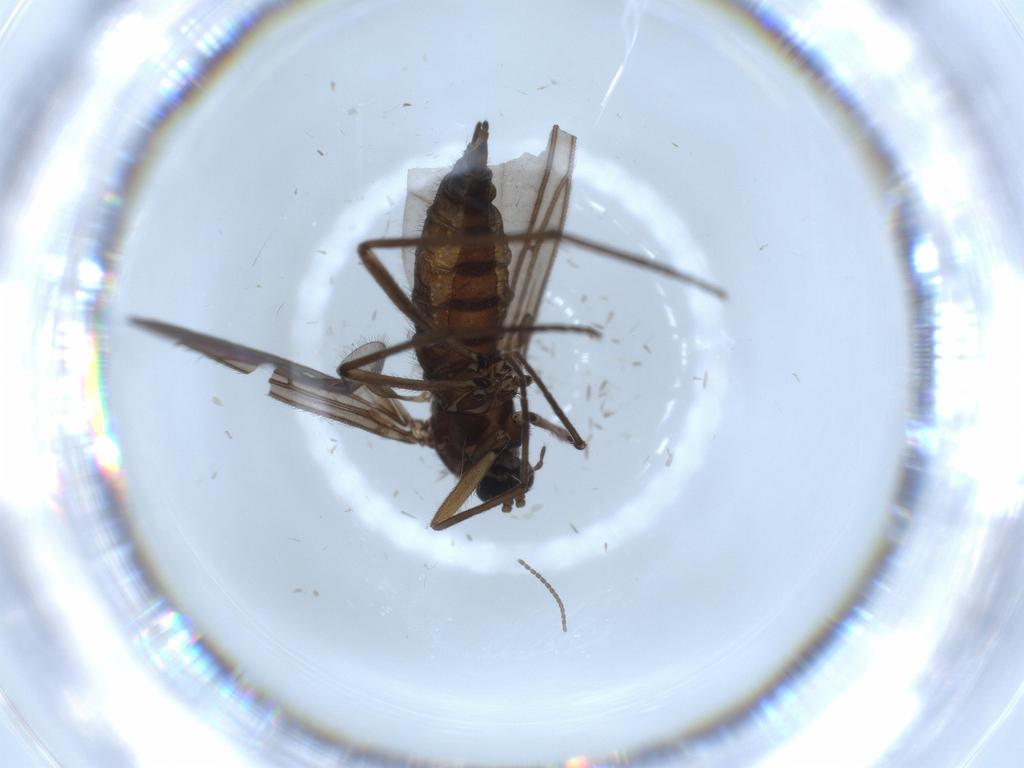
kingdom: Animalia
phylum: Arthropoda
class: Insecta
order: Diptera
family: Sciaridae
